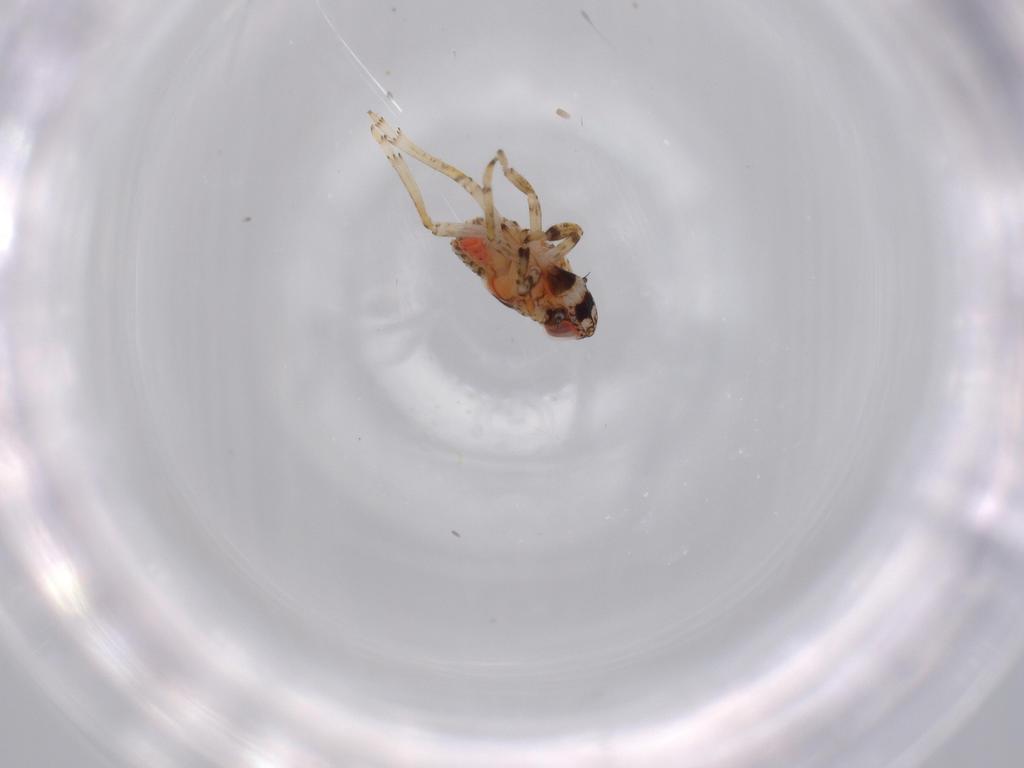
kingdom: Animalia
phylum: Arthropoda
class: Insecta
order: Hemiptera
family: Issidae
